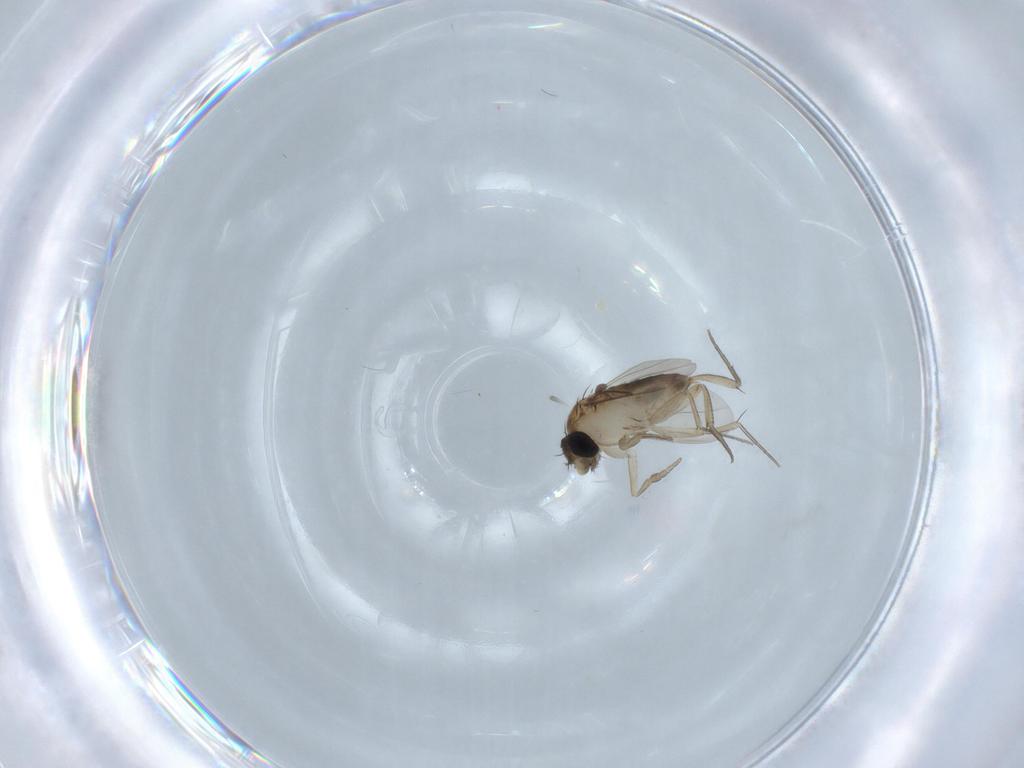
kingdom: Animalia
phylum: Arthropoda
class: Insecta
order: Diptera
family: Phoridae
